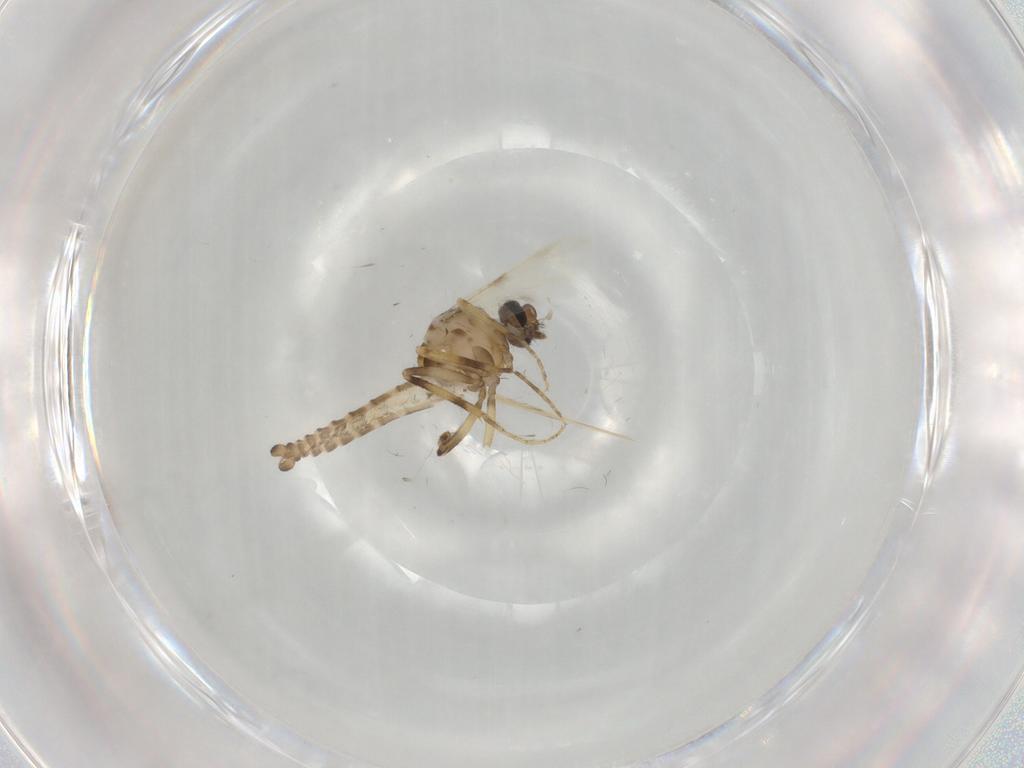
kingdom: Animalia
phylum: Arthropoda
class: Insecta
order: Diptera
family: Ceratopogonidae
